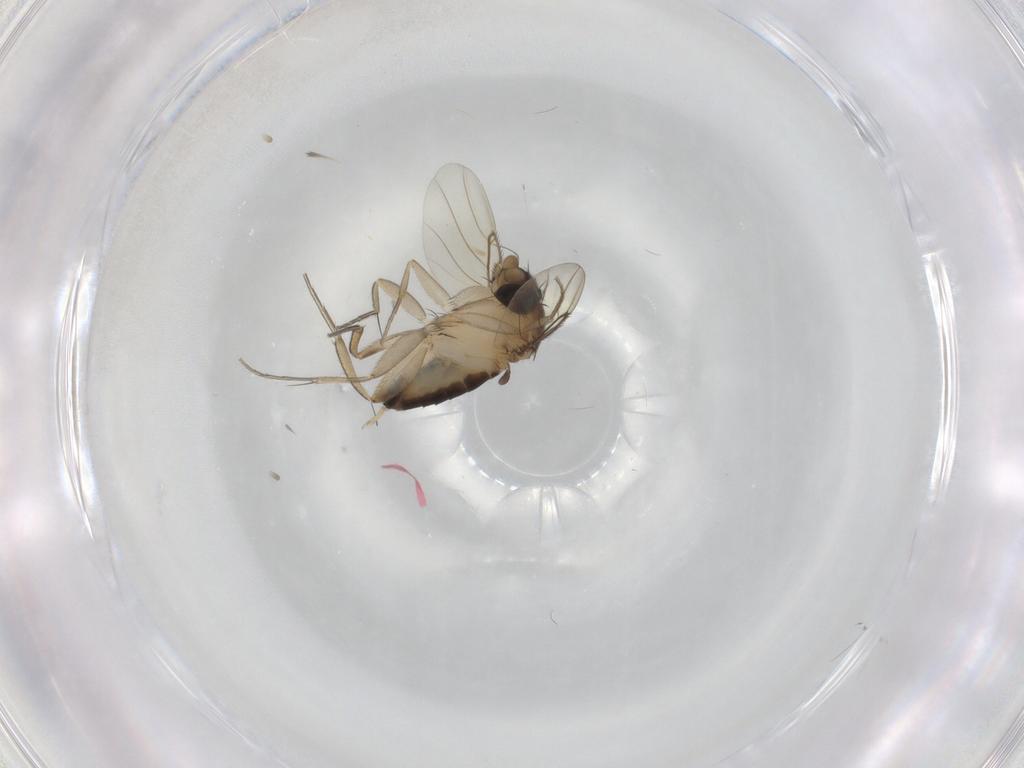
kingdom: Animalia
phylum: Arthropoda
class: Insecta
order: Diptera
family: Phoridae
